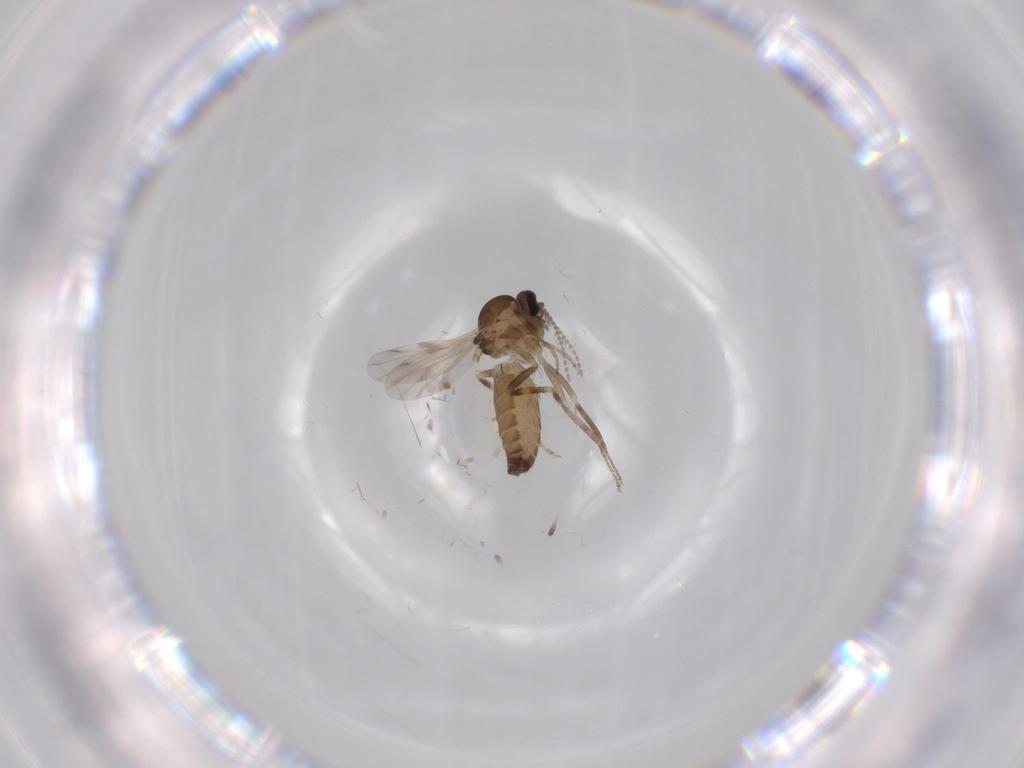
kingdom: Animalia
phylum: Arthropoda
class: Insecta
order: Diptera
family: Ceratopogonidae
